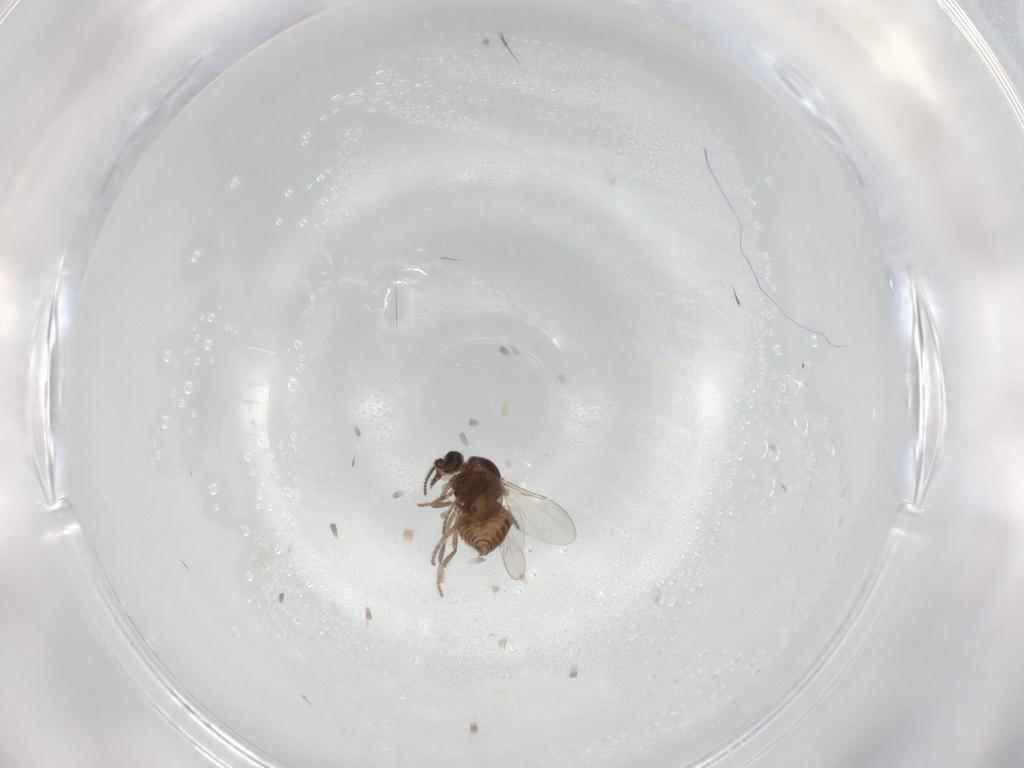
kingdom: Animalia
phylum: Arthropoda
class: Insecta
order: Diptera
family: Ceratopogonidae
